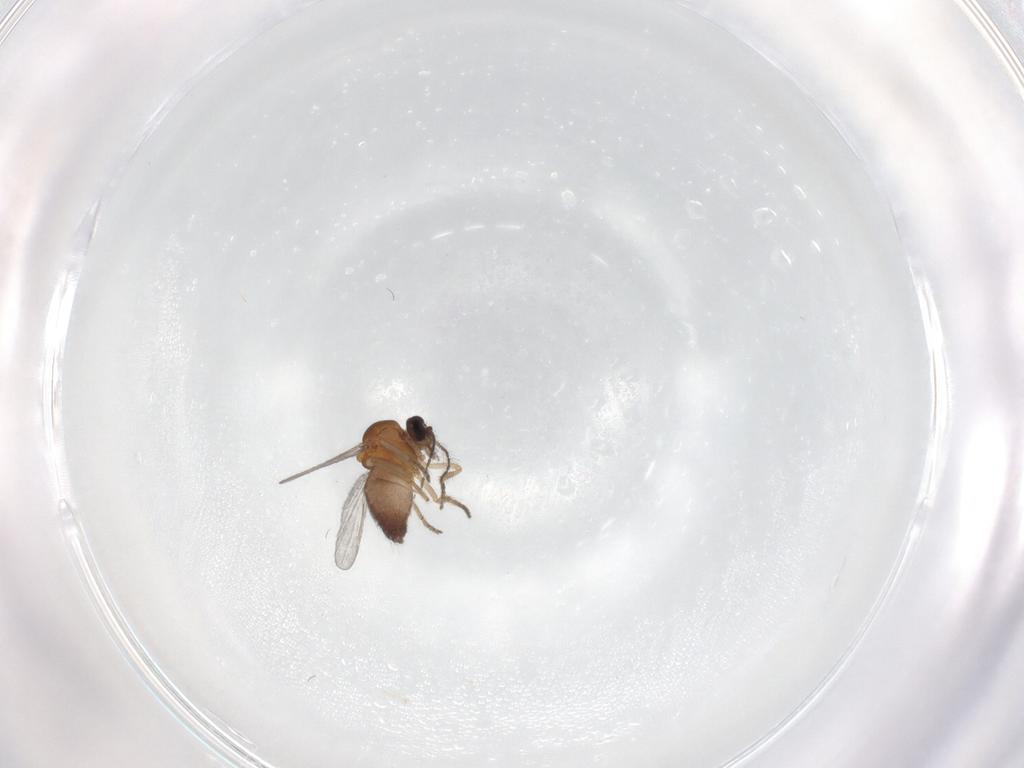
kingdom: Animalia
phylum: Arthropoda
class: Insecta
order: Diptera
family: Ceratopogonidae
